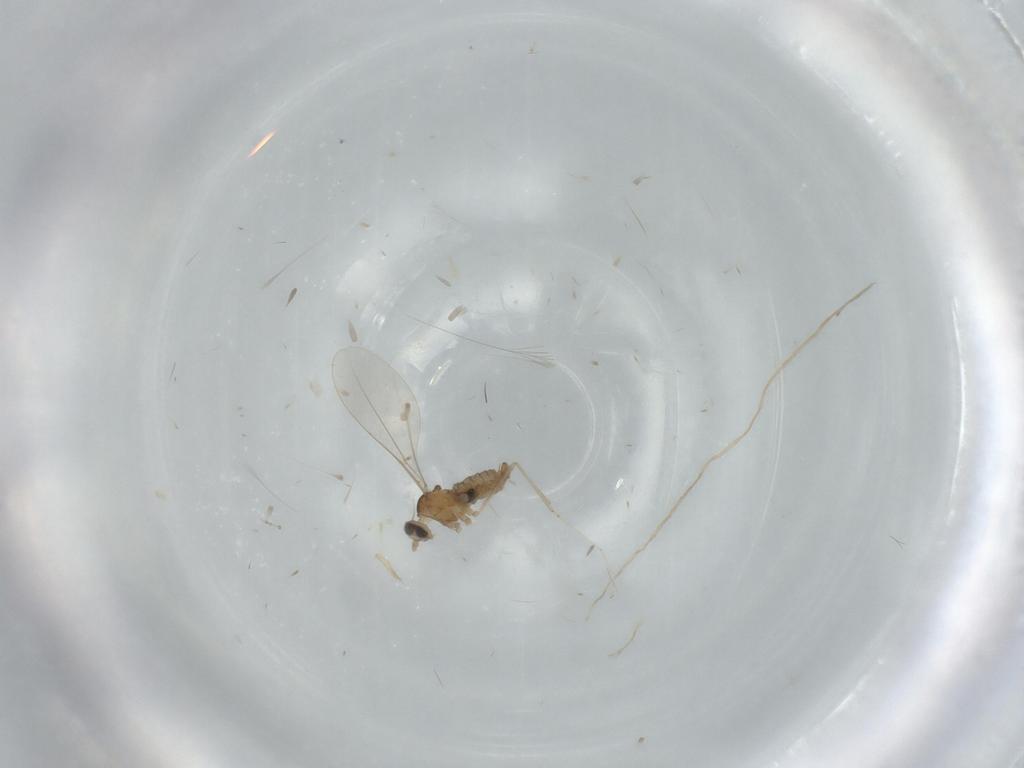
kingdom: Animalia
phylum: Arthropoda
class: Insecta
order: Diptera
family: Cecidomyiidae
